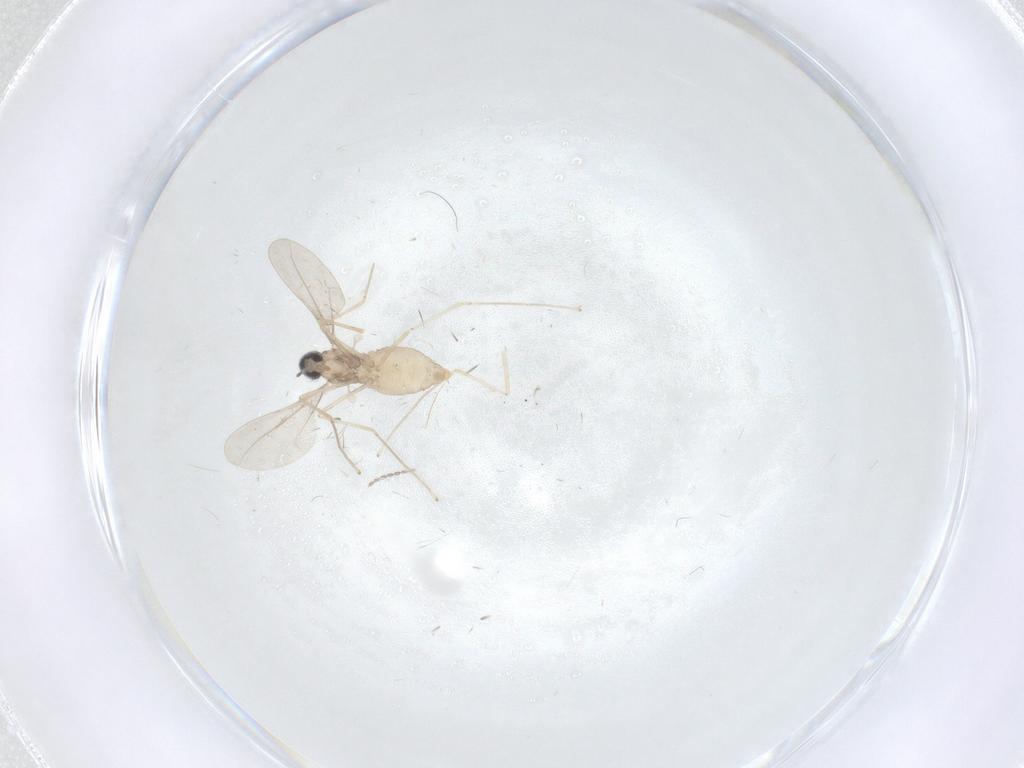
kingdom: Animalia
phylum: Arthropoda
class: Insecta
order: Diptera
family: Cecidomyiidae
